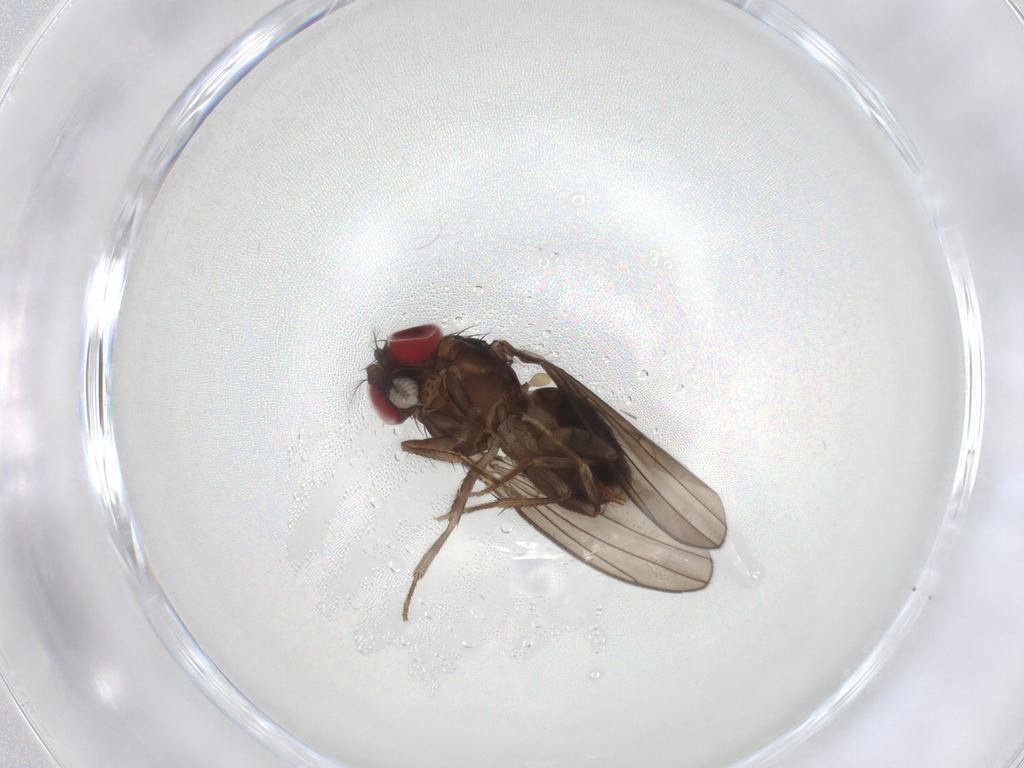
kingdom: Animalia
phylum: Arthropoda
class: Insecta
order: Diptera
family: Drosophilidae
